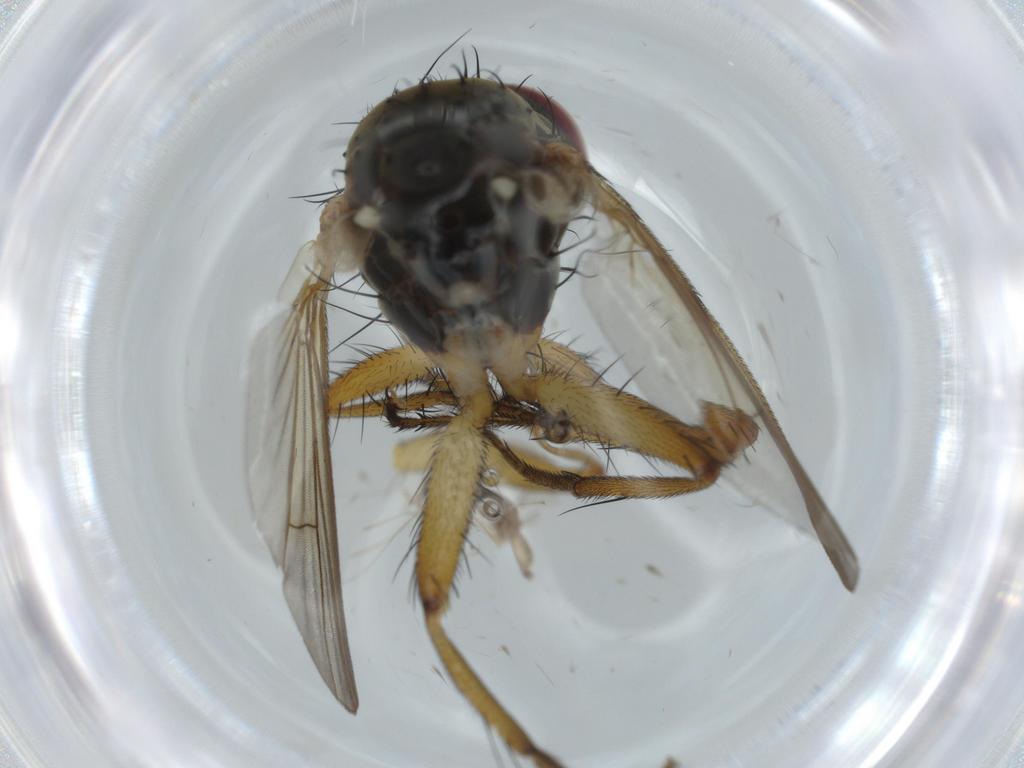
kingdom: Animalia
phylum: Arthropoda
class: Insecta
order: Diptera
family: Muscidae
